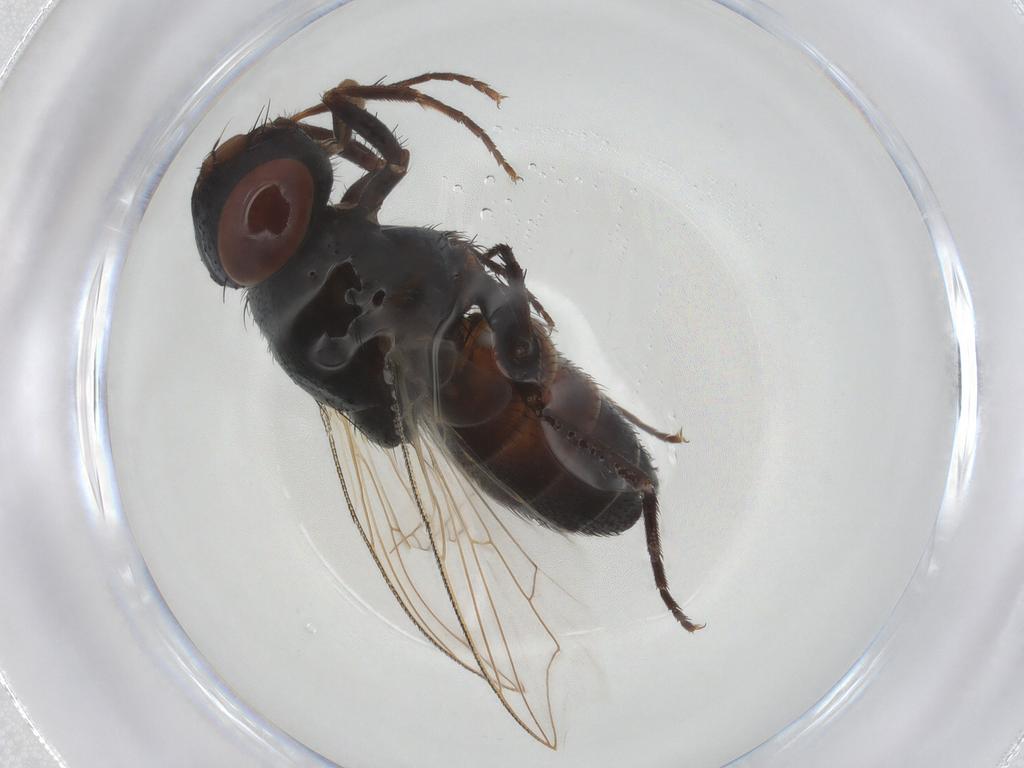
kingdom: Animalia
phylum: Arthropoda
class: Insecta
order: Diptera
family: Sarcophagidae
